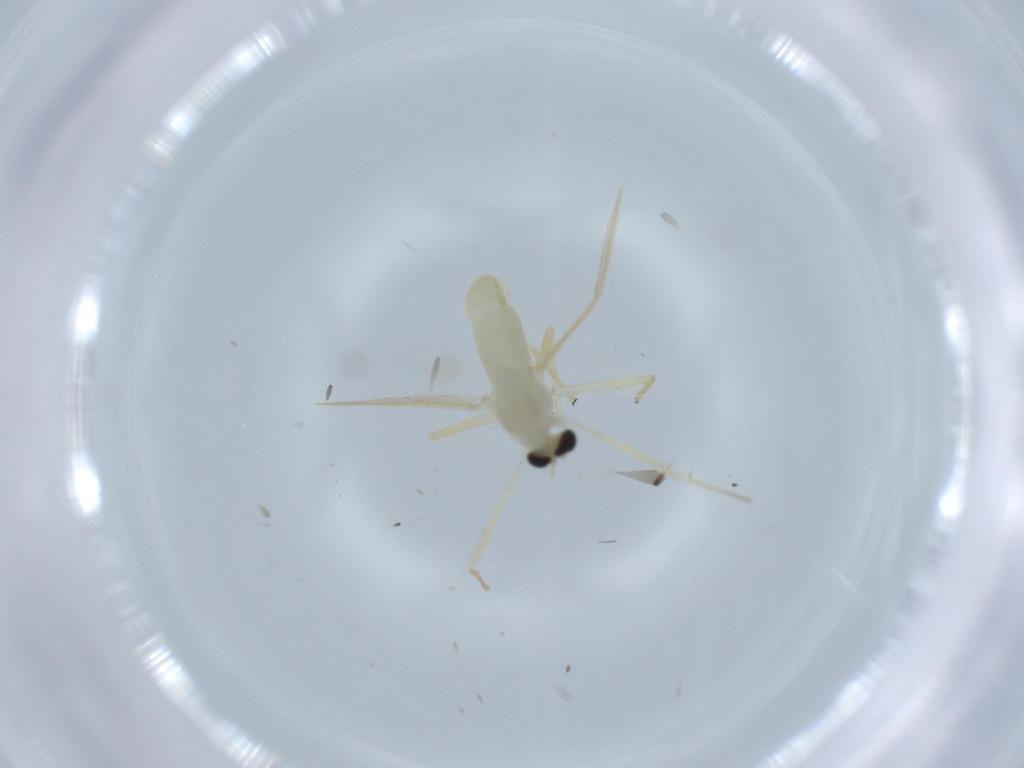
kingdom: Animalia
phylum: Arthropoda
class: Insecta
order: Diptera
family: Chironomidae
